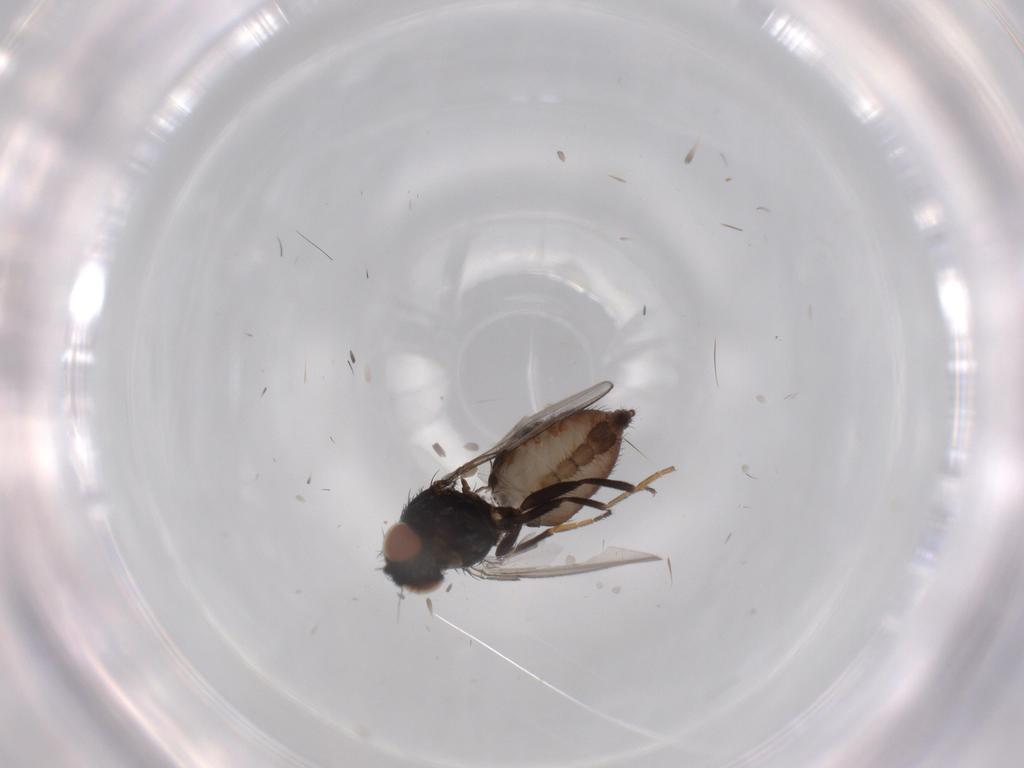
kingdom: Animalia
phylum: Arthropoda
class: Insecta
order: Diptera
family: Milichiidae
